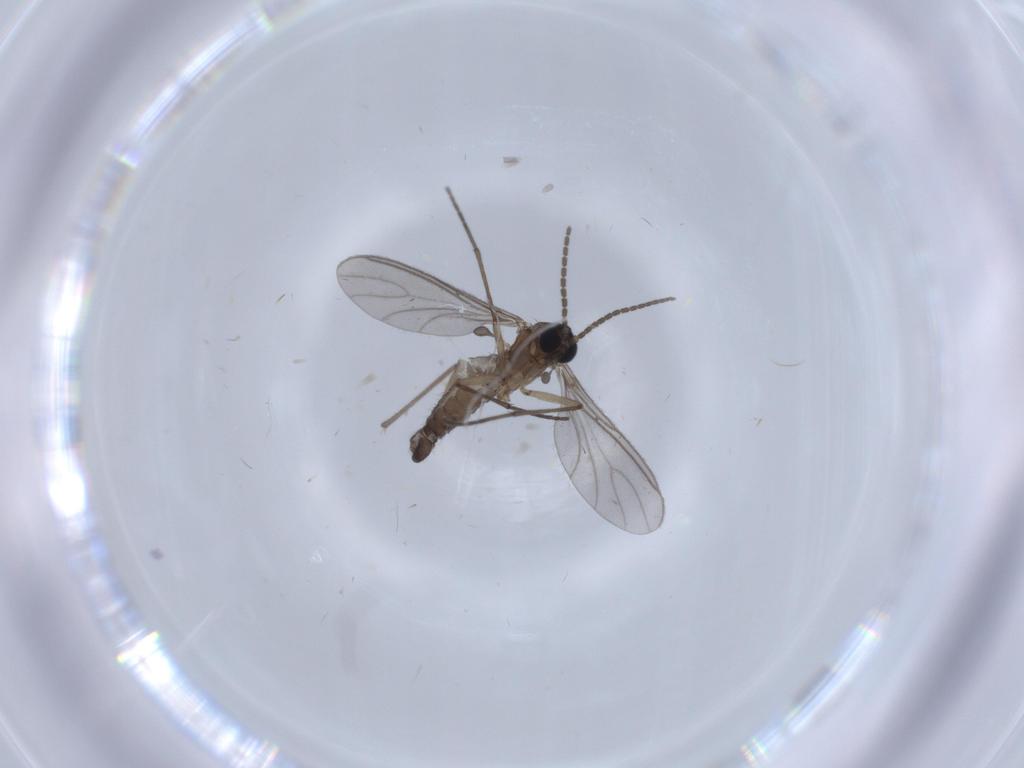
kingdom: Animalia
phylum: Arthropoda
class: Insecta
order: Diptera
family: Sciaridae
